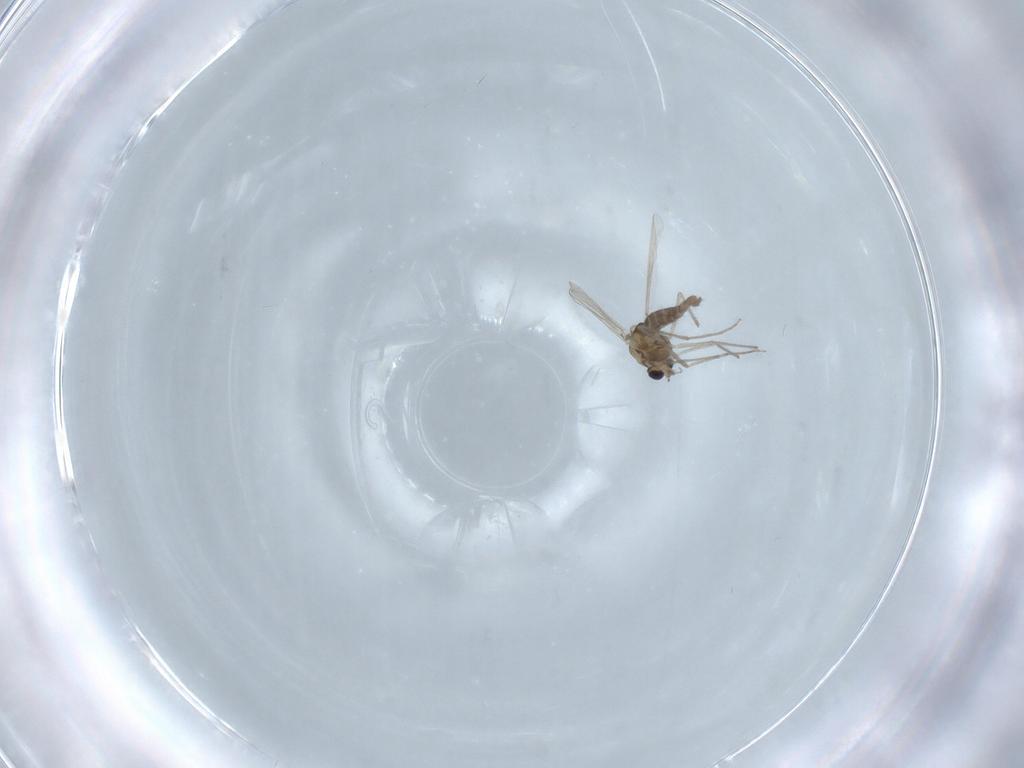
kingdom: Animalia
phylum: Arthropoda
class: Insecta
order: Diptera
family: Chironomidae
